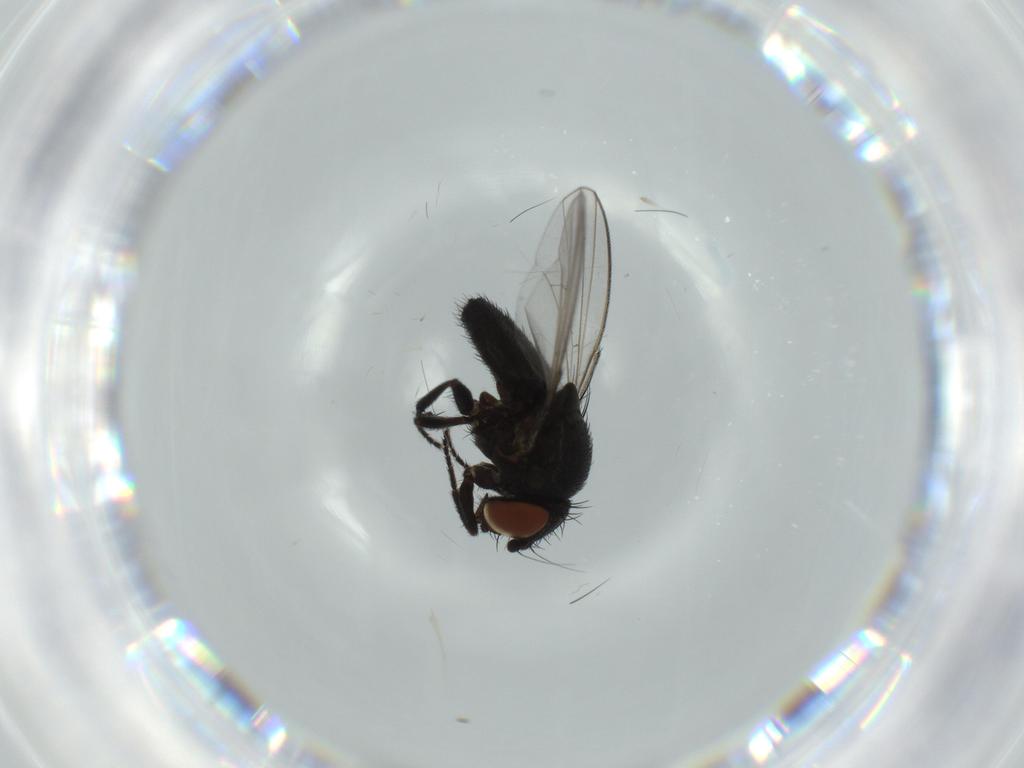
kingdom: Animalia
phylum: Arthropoda
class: Insecta
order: Diptera
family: Milichiidae
